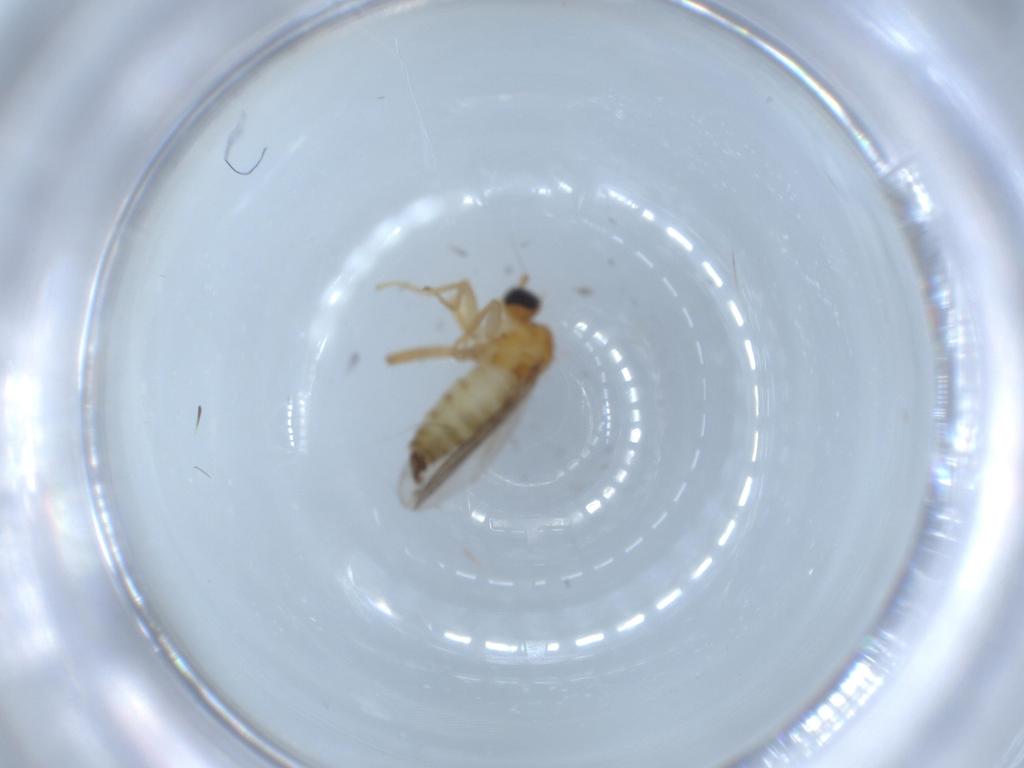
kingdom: Animalia
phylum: Arthropoda
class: Insecta
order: Diptera
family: Hybotidae
